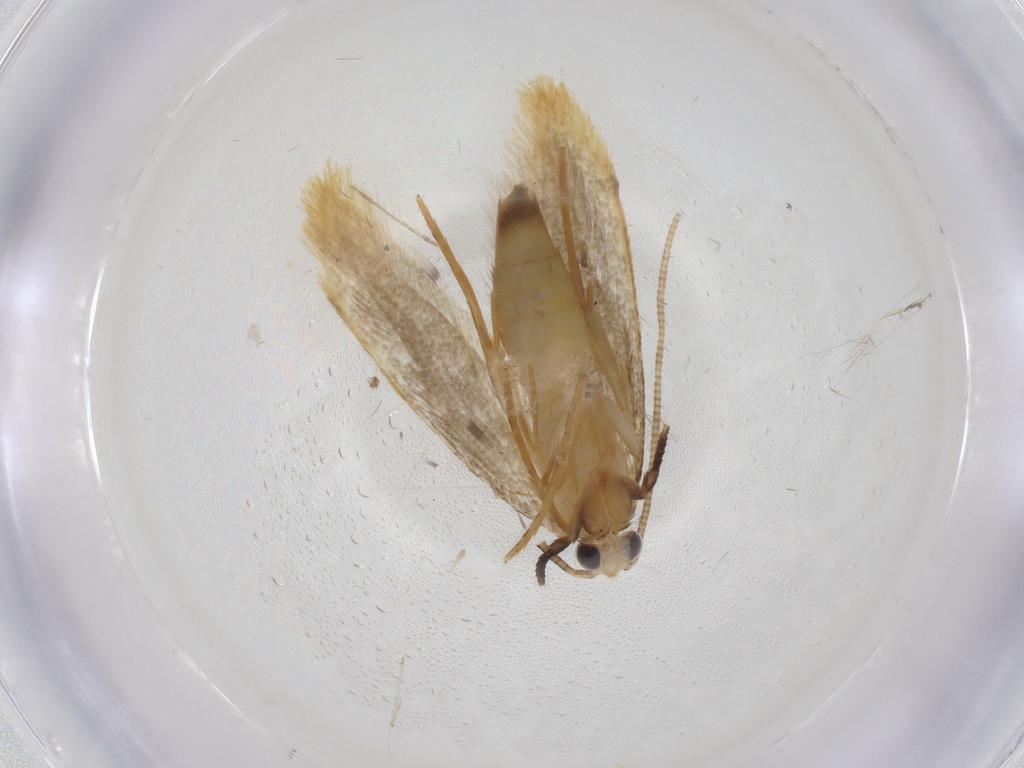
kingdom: Animalia
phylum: Arthropoda
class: Insecta
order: Lepidoptera
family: Tineidae
